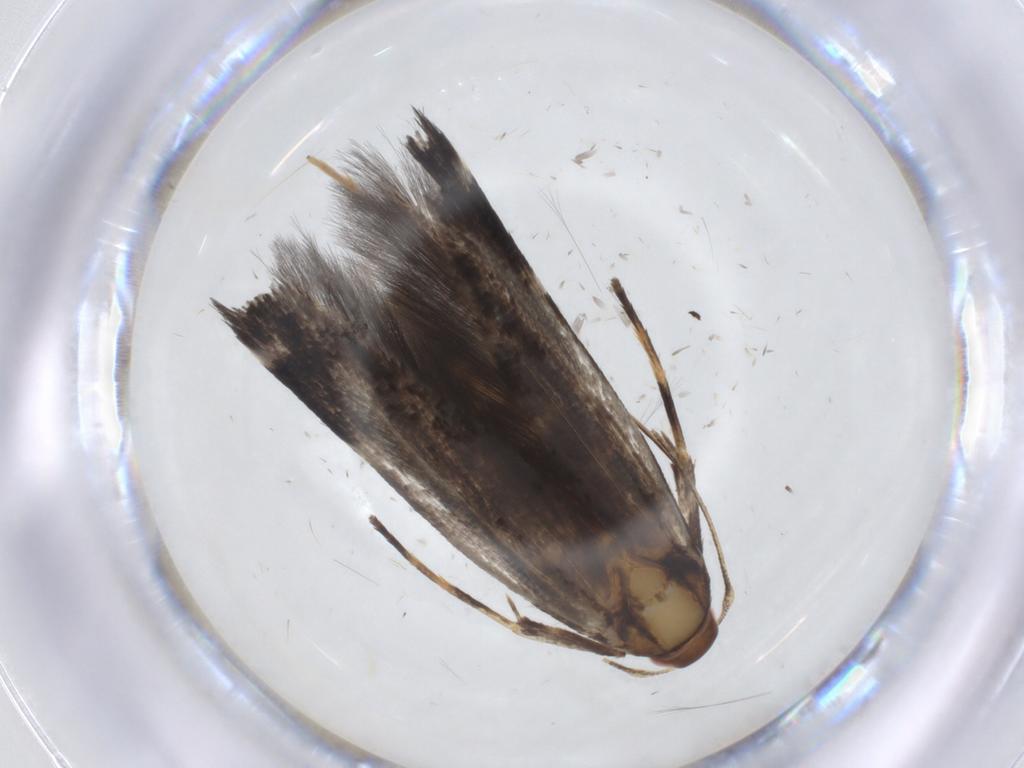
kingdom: Animalia
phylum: Arthropoda
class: Insecta
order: Lepidoptera
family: Cosmopterigidae
